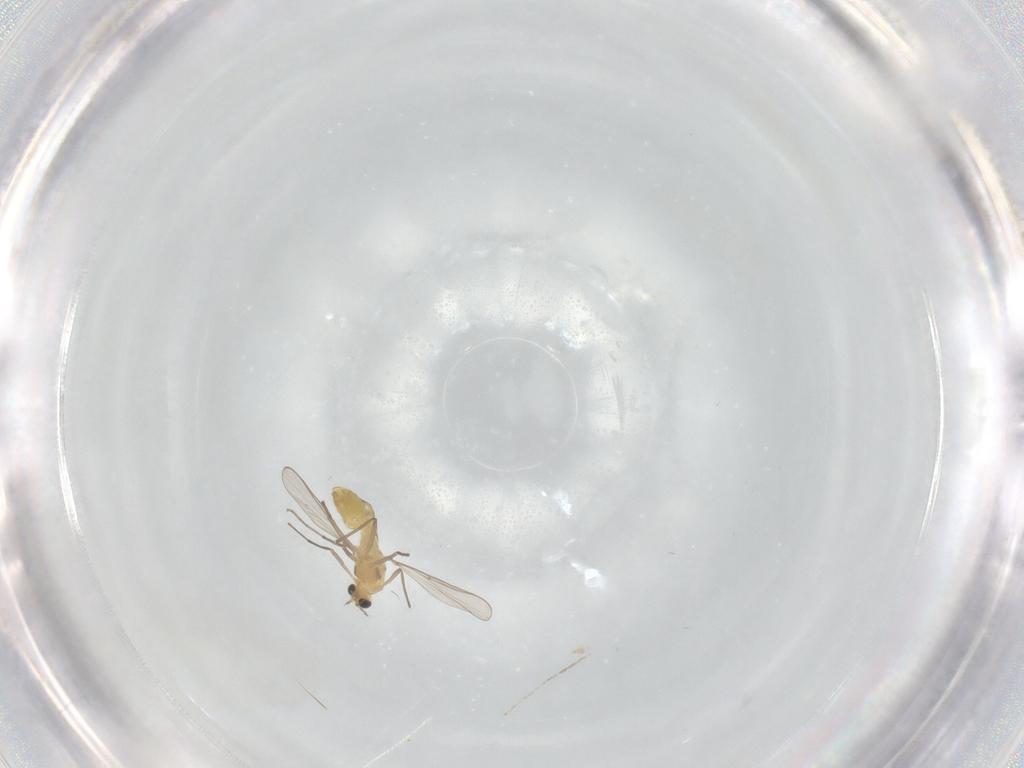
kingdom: Animalia
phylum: Arthropoda
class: Insecta
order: Diptera
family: Chironomidae
